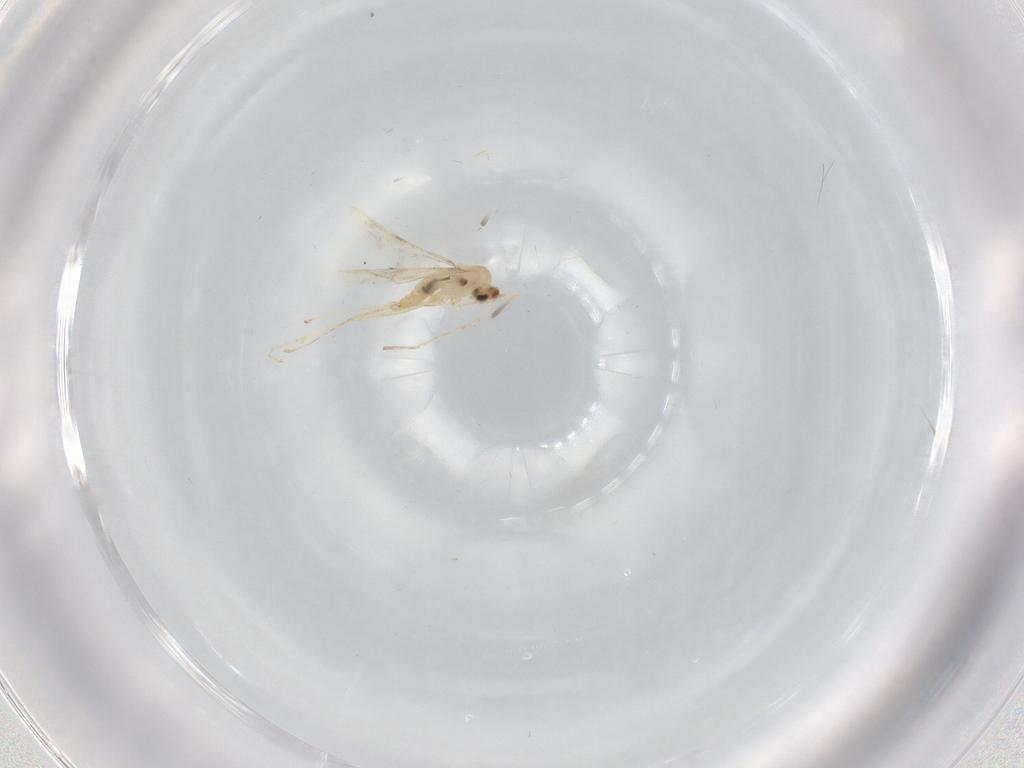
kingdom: Animalia
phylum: Arthropoda
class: Insecta
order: Diptera
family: Cecidomyiidae
